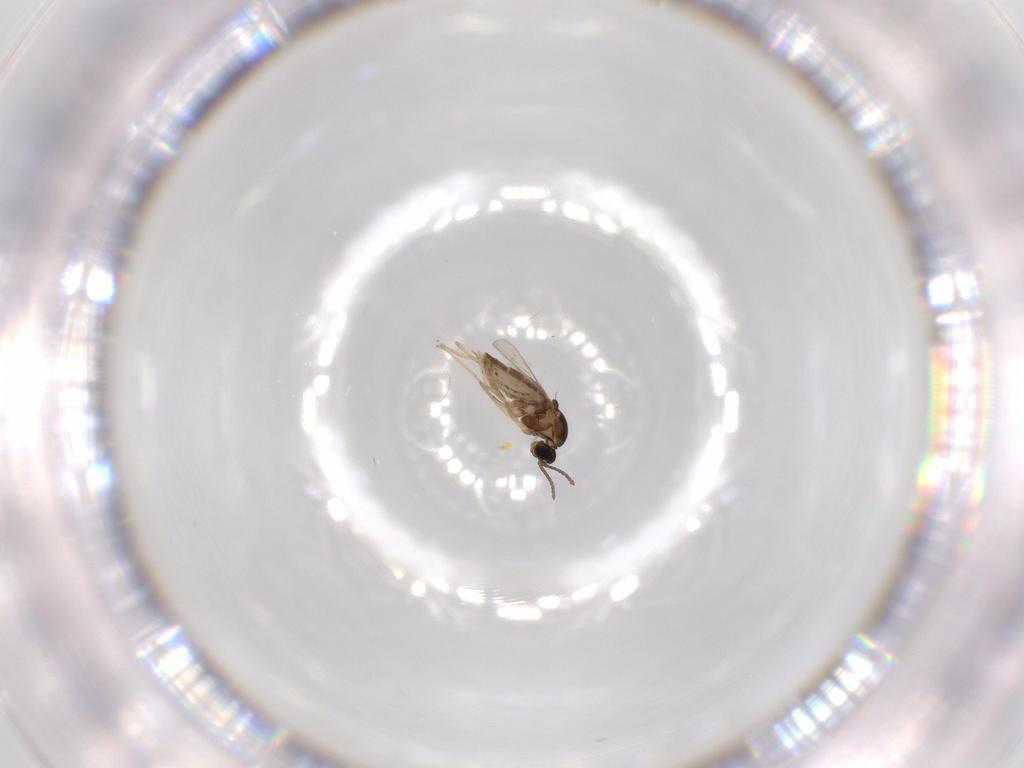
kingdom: Animalia
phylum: Arthropoda
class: Insecta
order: Diptera
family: Cecidomyiidae
